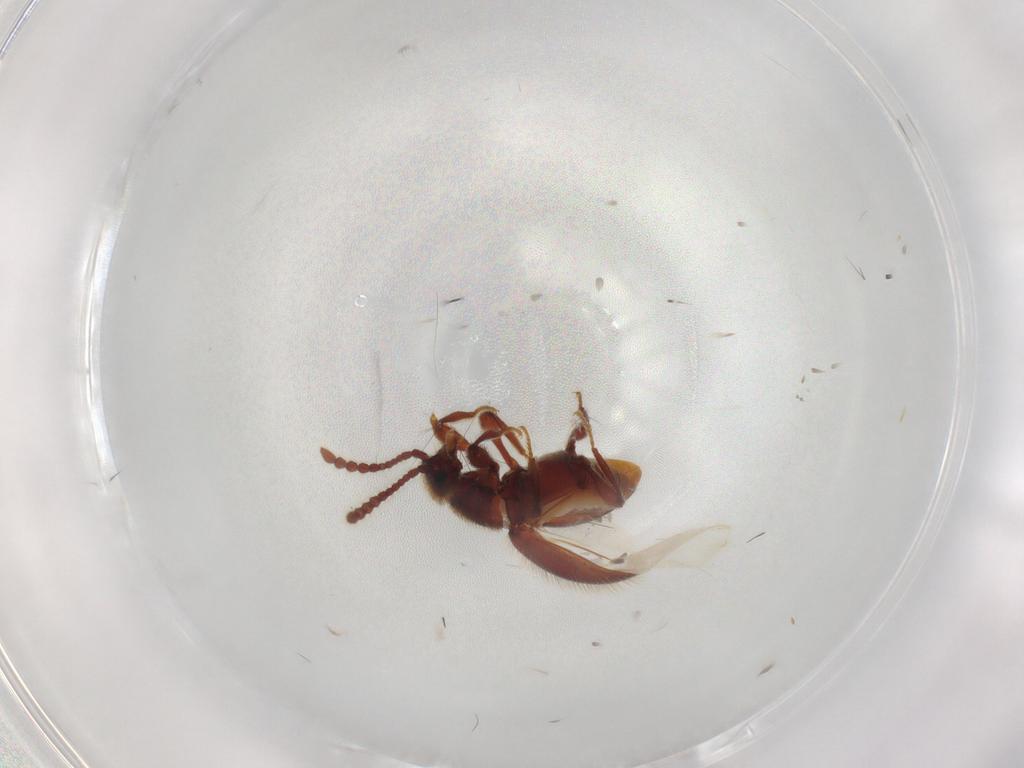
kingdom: Animalia
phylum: Arthropoda
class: Insecta
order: Coleoptera
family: Staphylinidae
